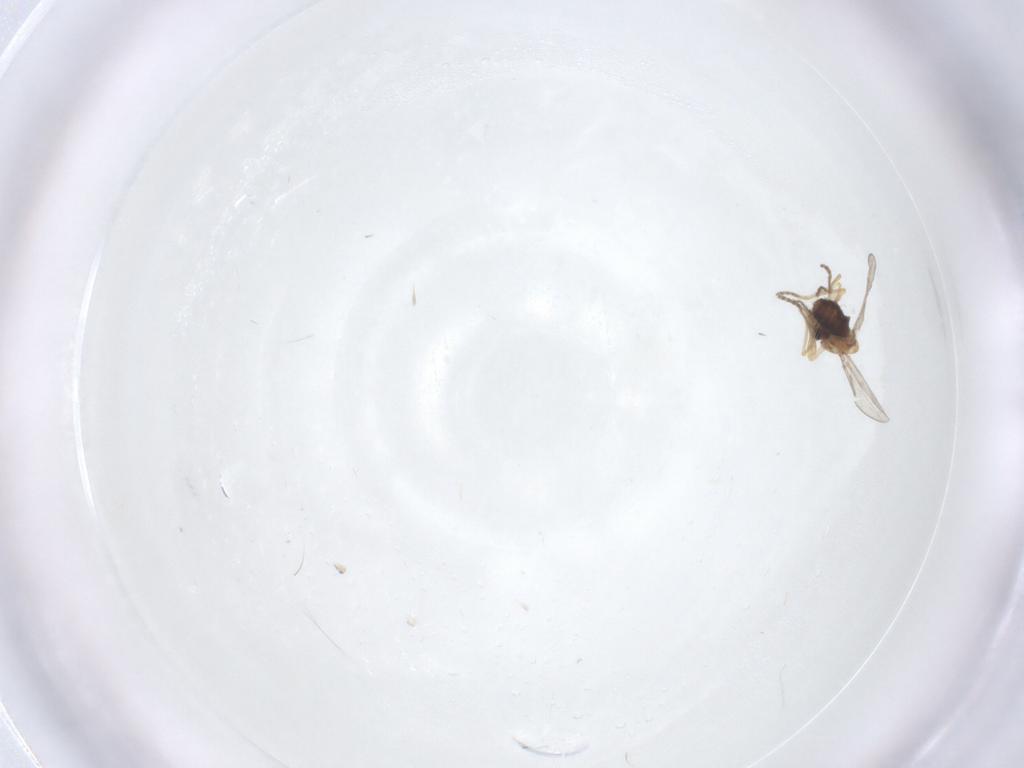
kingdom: Animalia
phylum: Arthropoda
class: Insecta
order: Diptera
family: Ceratopogonidae
